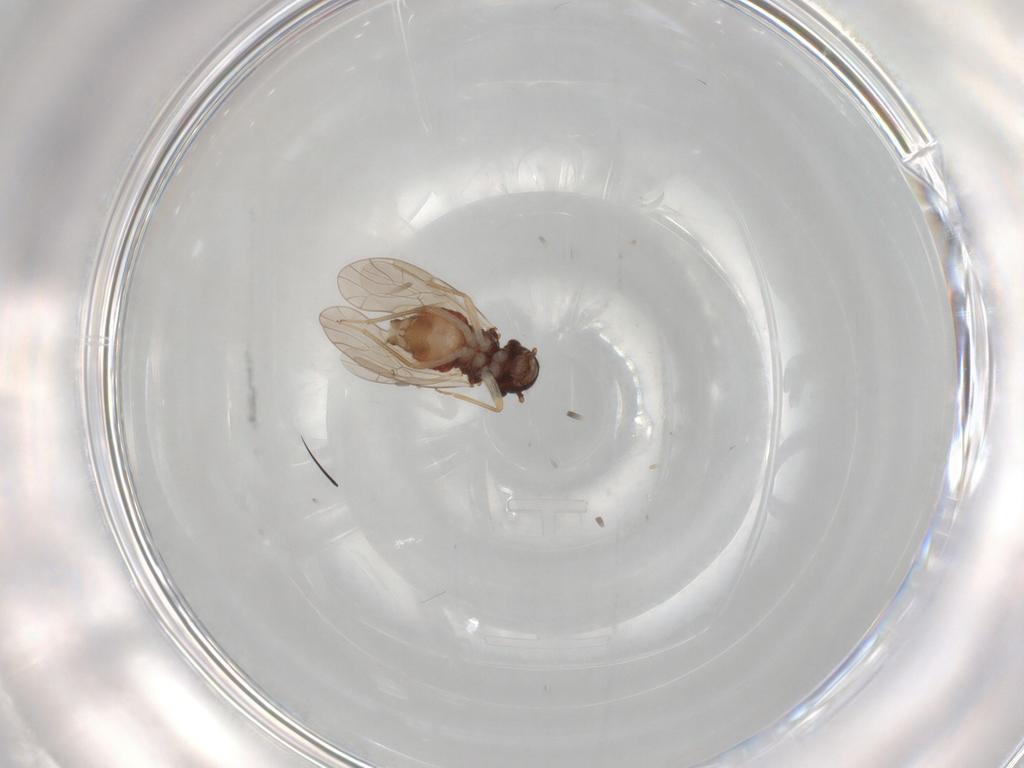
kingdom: Animalia
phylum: Arthropoda
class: Insecta
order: Psocodea
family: Ectopsocidae
